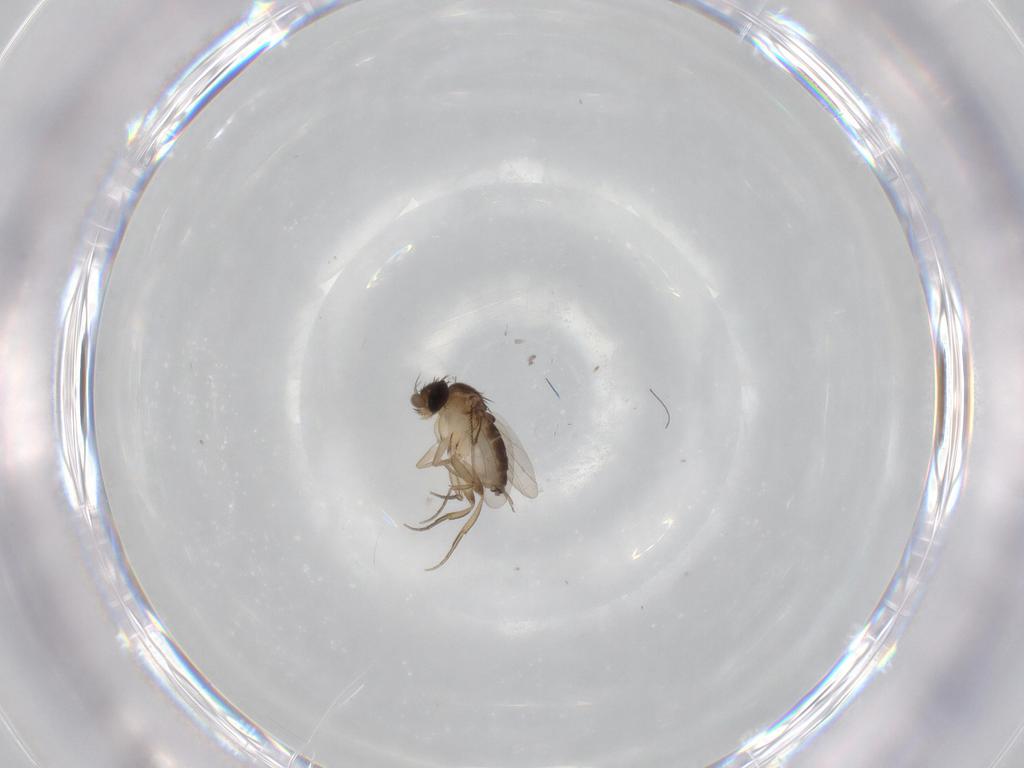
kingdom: Animalia
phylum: Arthropoda
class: Insecta
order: Diptera
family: Phoridae
